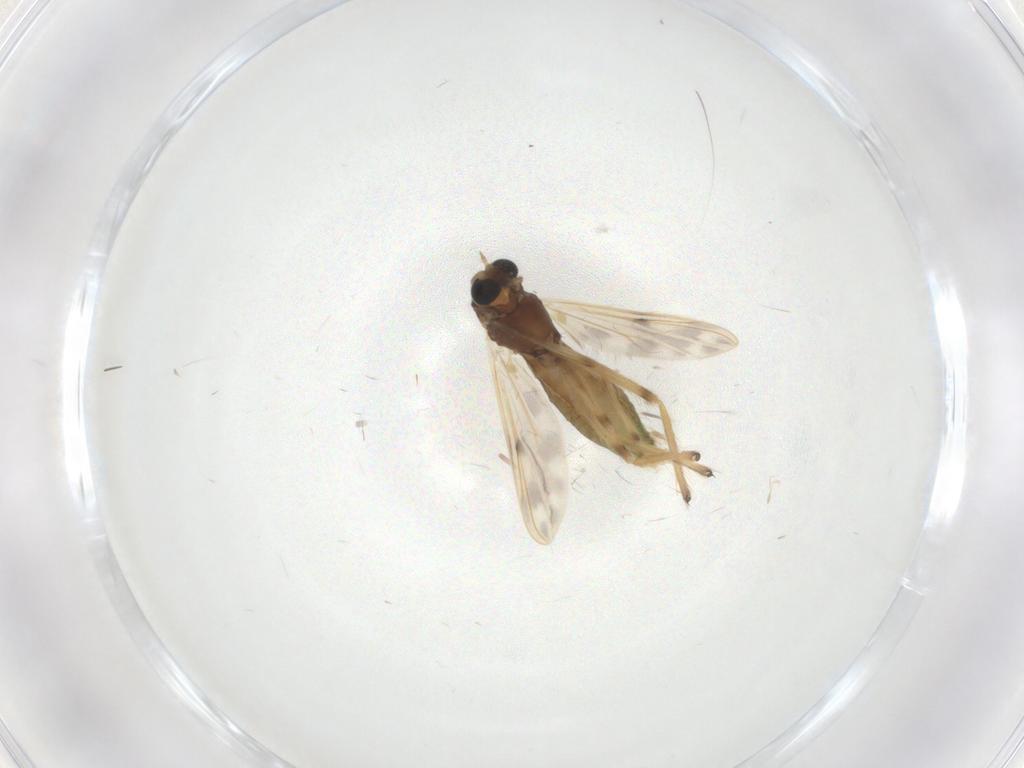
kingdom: Animalia
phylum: Arthropoda
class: Insecta
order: Diptera
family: Chironomidae
